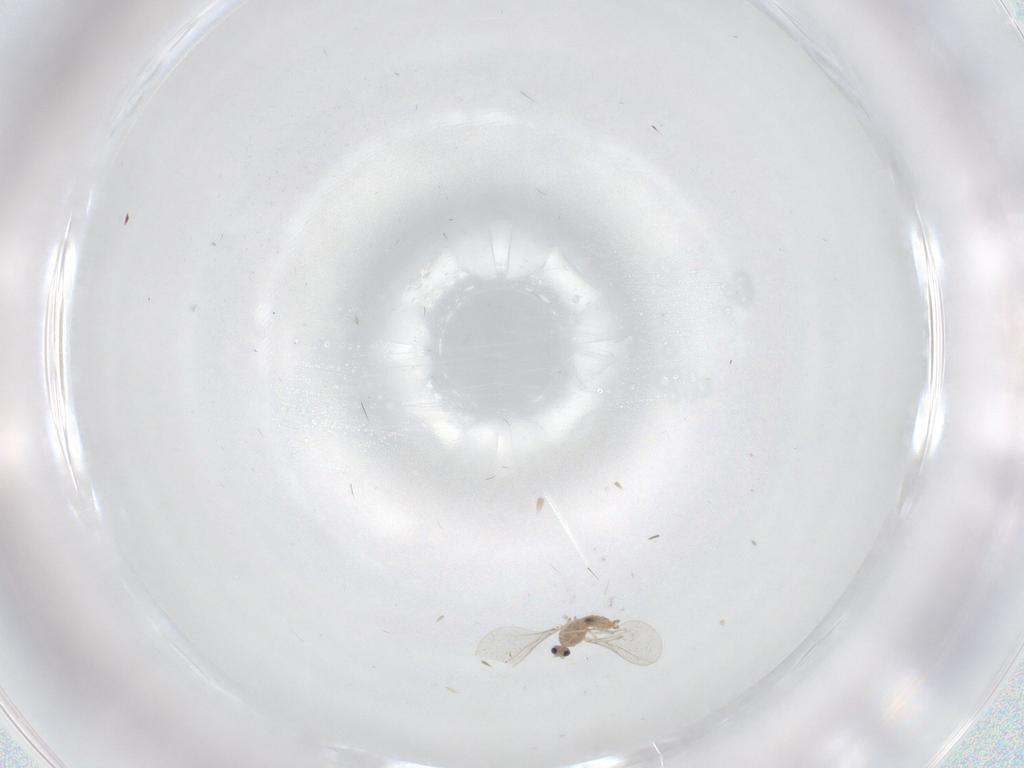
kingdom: Animalia
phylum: Arthropoda
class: Insecta
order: Diptera
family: Cecidomyiidae
